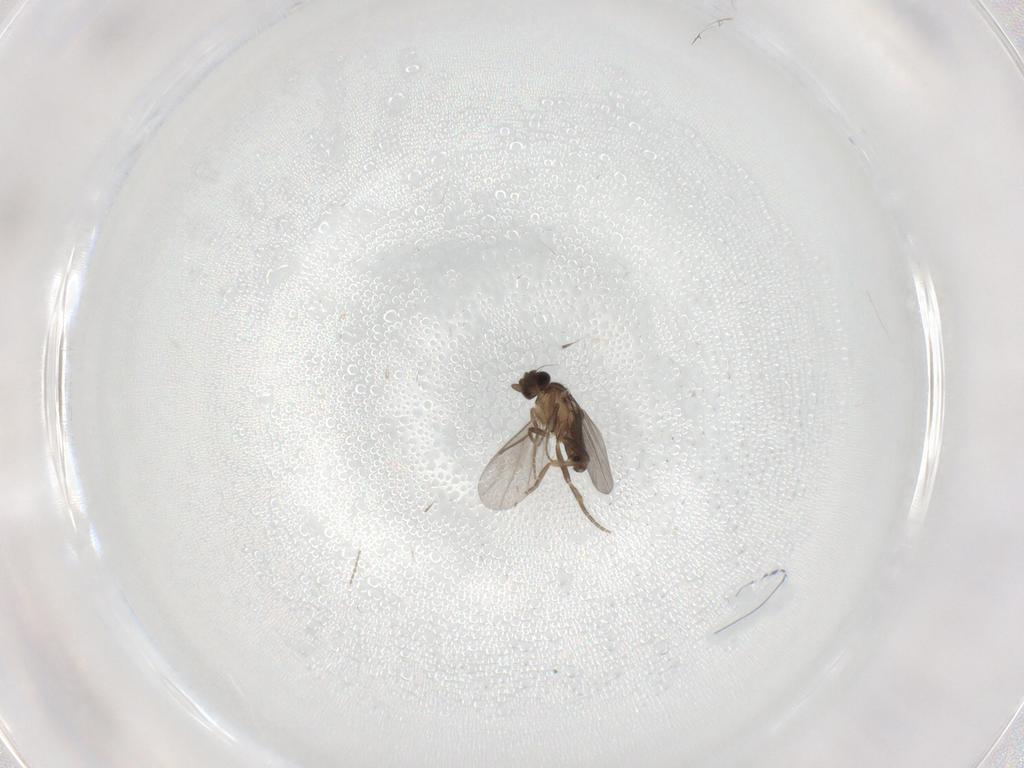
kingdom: Animalia
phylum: Arthropoda
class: Insecta
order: Diptera
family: Cecidomyiidae
